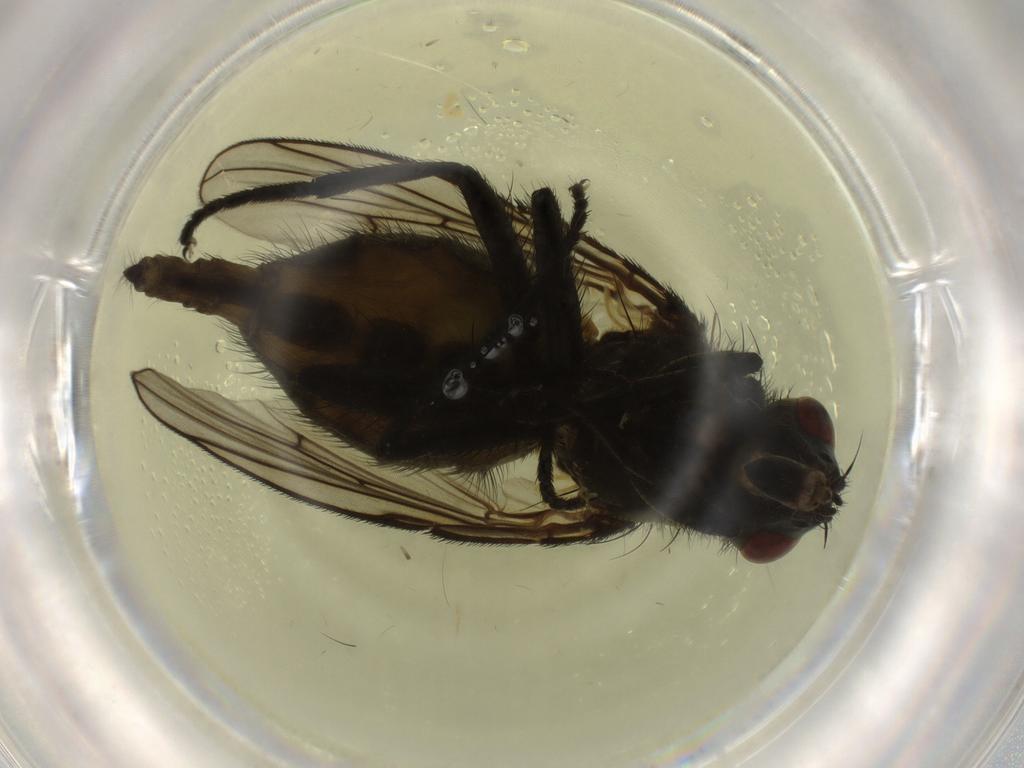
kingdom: Animalia
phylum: Arthropoda
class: Insecta
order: Diptera
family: Muscidae
